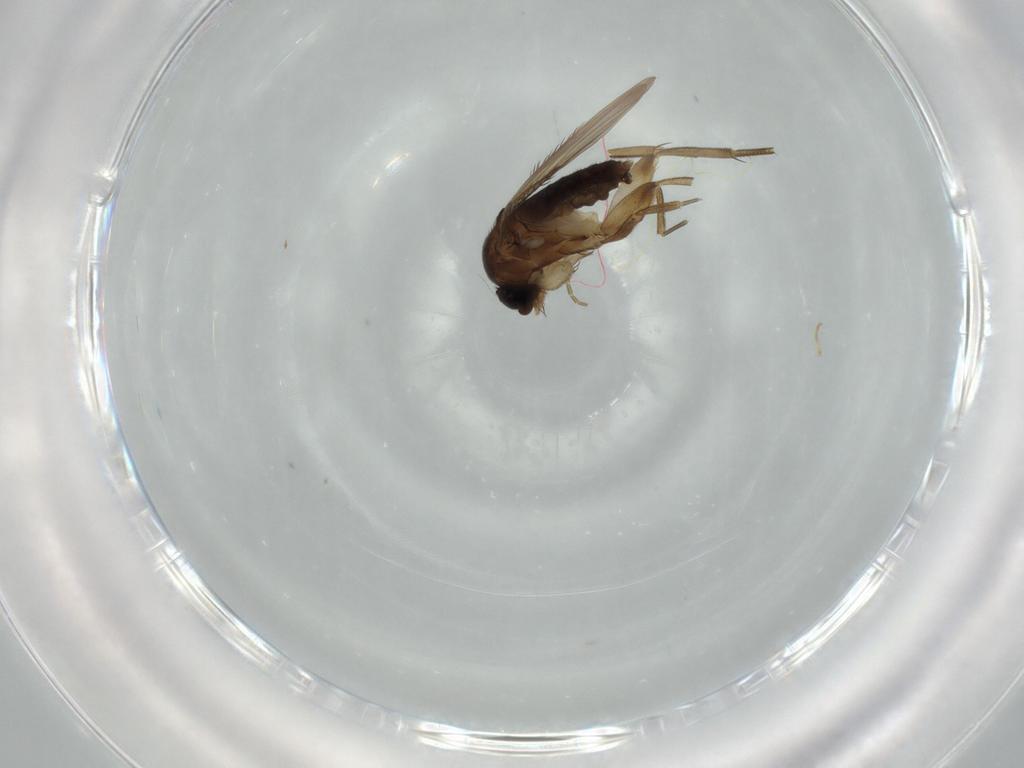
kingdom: Animalia
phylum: Arthropoda
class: Insecta
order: Diptera
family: Phoridae
